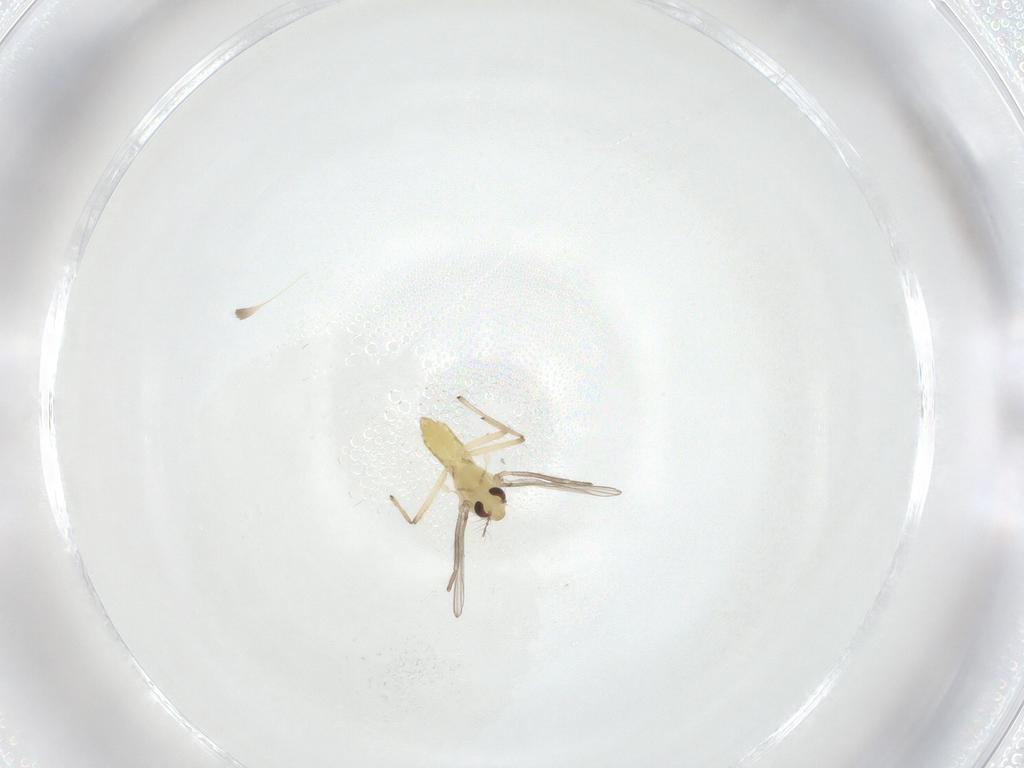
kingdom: Animalia
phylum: Arthropoda
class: Insecta
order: Diptera
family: Chironomidae
